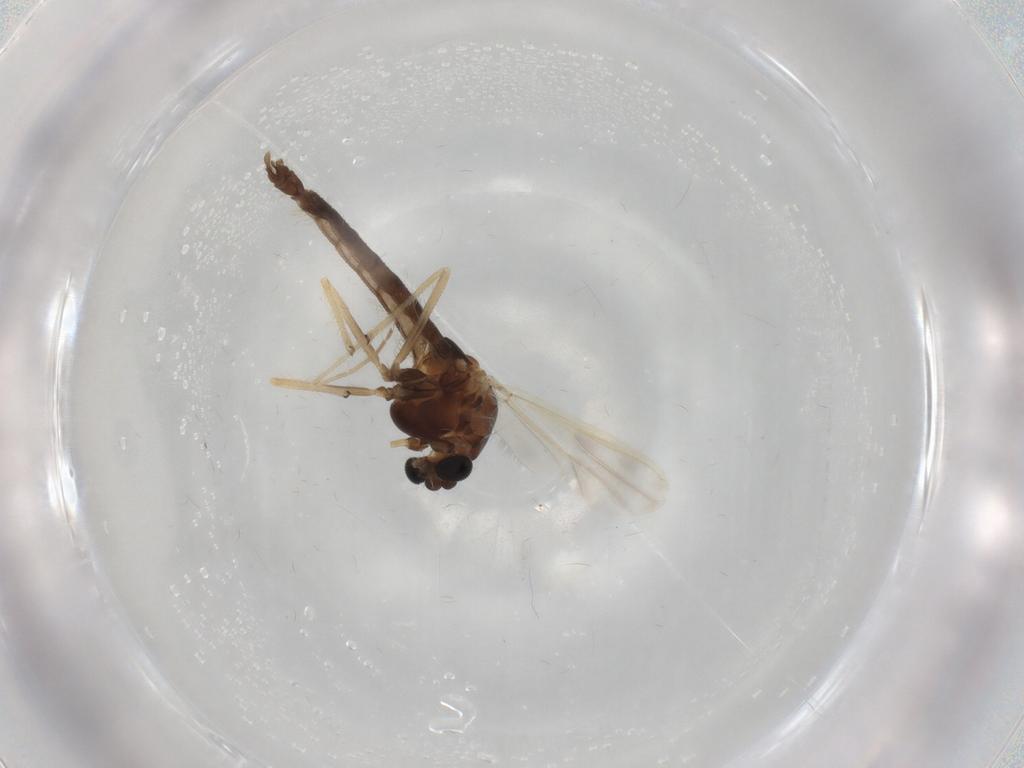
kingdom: Animalia
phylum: Arthropoda
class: Insecta
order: Diptera
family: Chironomidae
